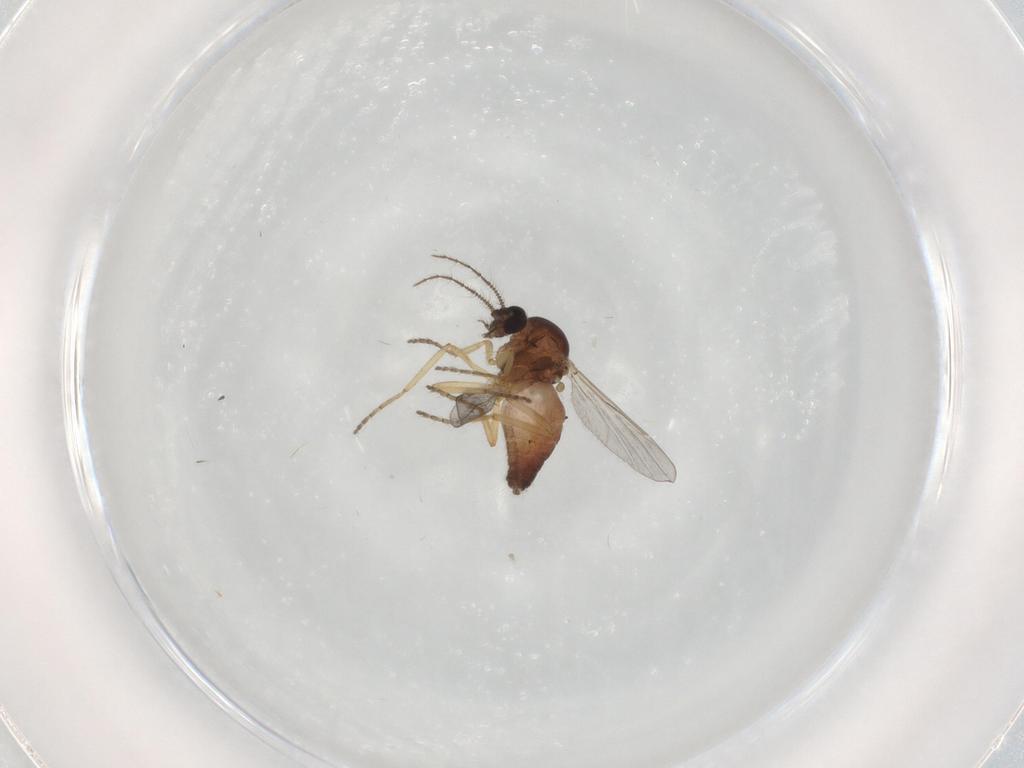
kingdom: Animalia
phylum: Arthropoda
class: Insecta
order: Diptera
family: Ceratopogonidae
